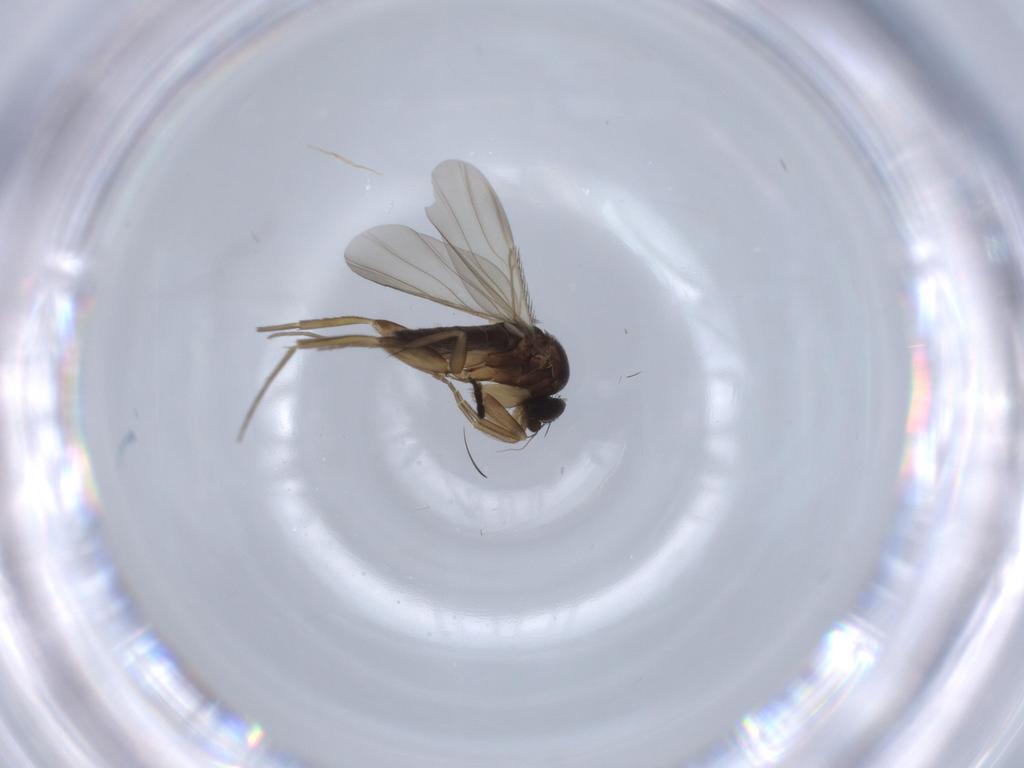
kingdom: Animalia
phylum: Arthropoda
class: Insecta
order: Diptera
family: Phoridae
